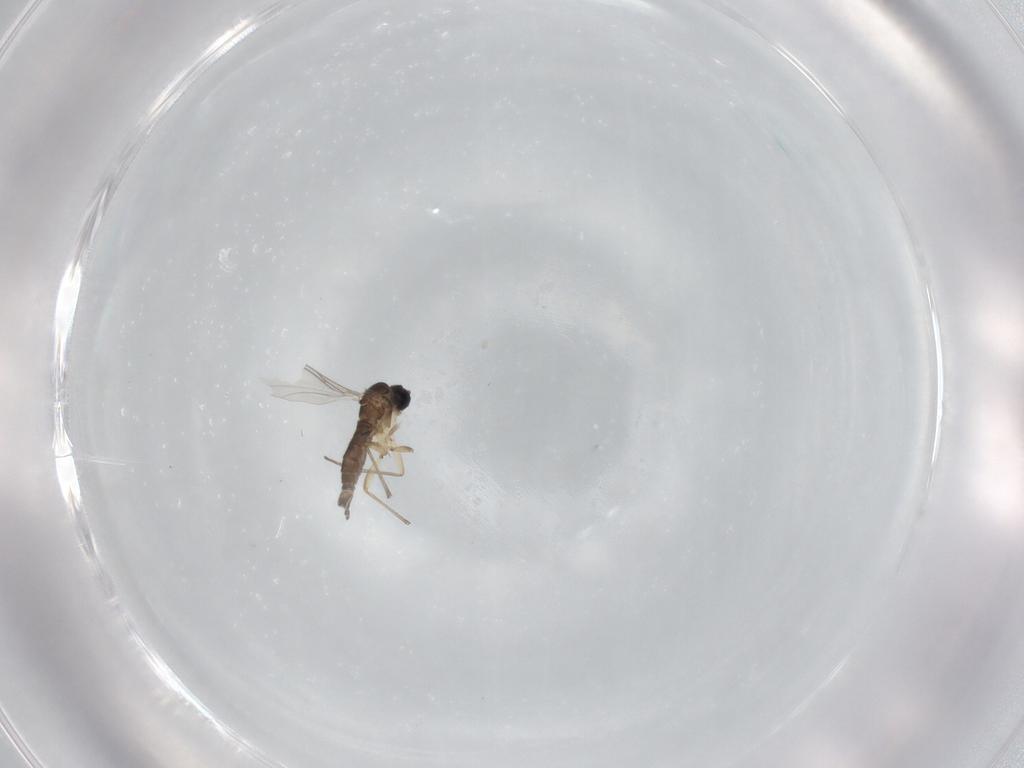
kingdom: Animalia
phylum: Arthropoda
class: Insecta
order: Diptera
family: Sciaridae
